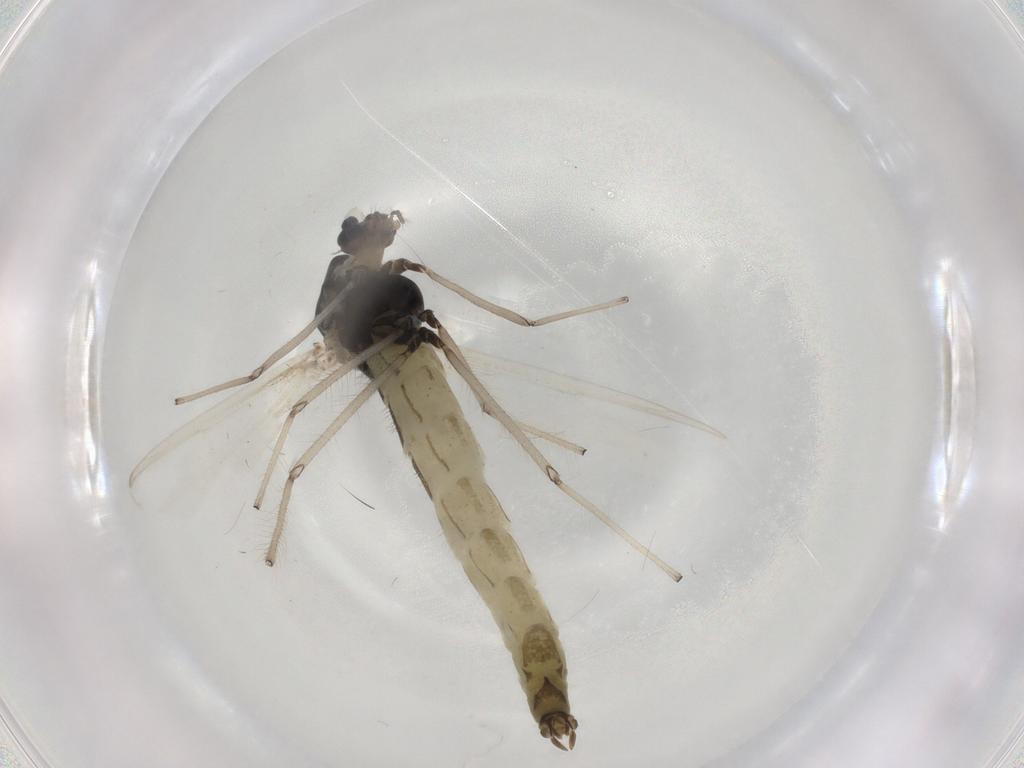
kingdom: Animalia
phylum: Arthropoda
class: Insecta
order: Diptera
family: Chironomidae
